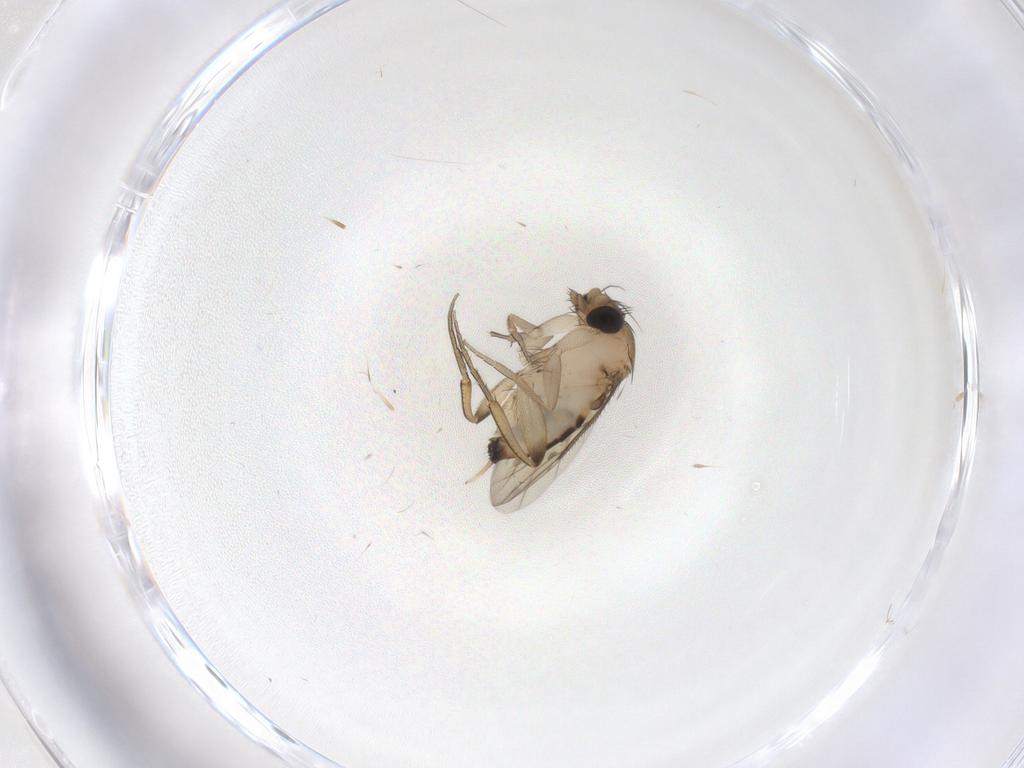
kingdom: Animalia
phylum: Arthropoda
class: Insecta
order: Diptera
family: Phoridae
